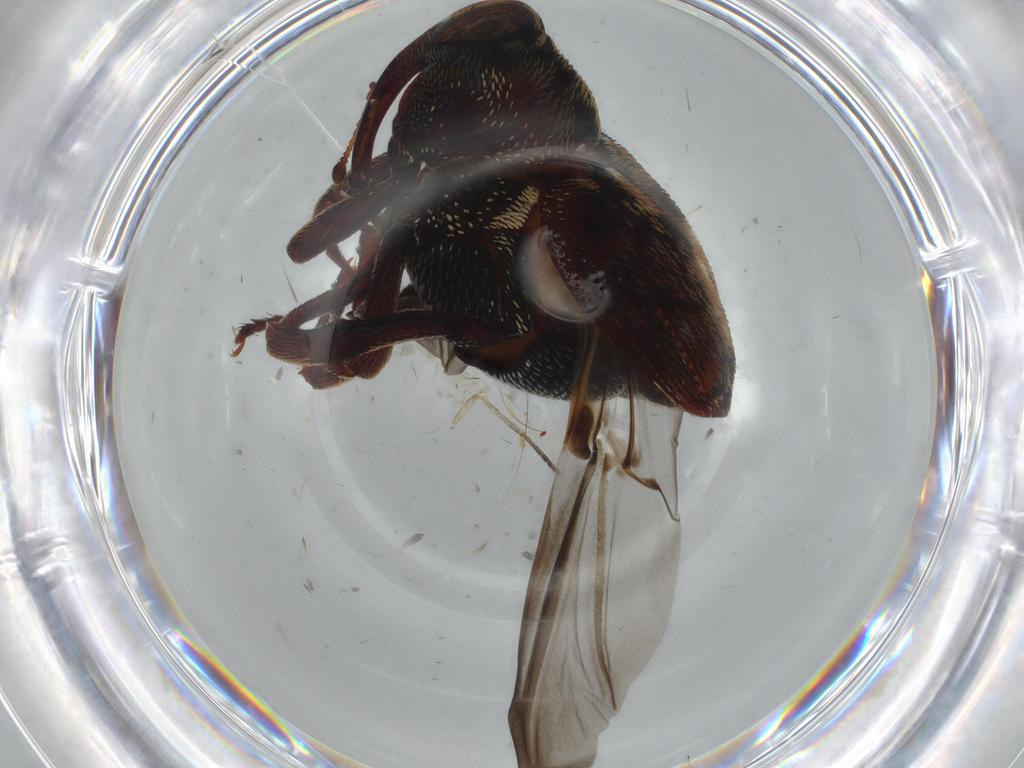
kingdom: Animalia
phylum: Arthropoda
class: Insecta
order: Coleoptera
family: Curculionidae
